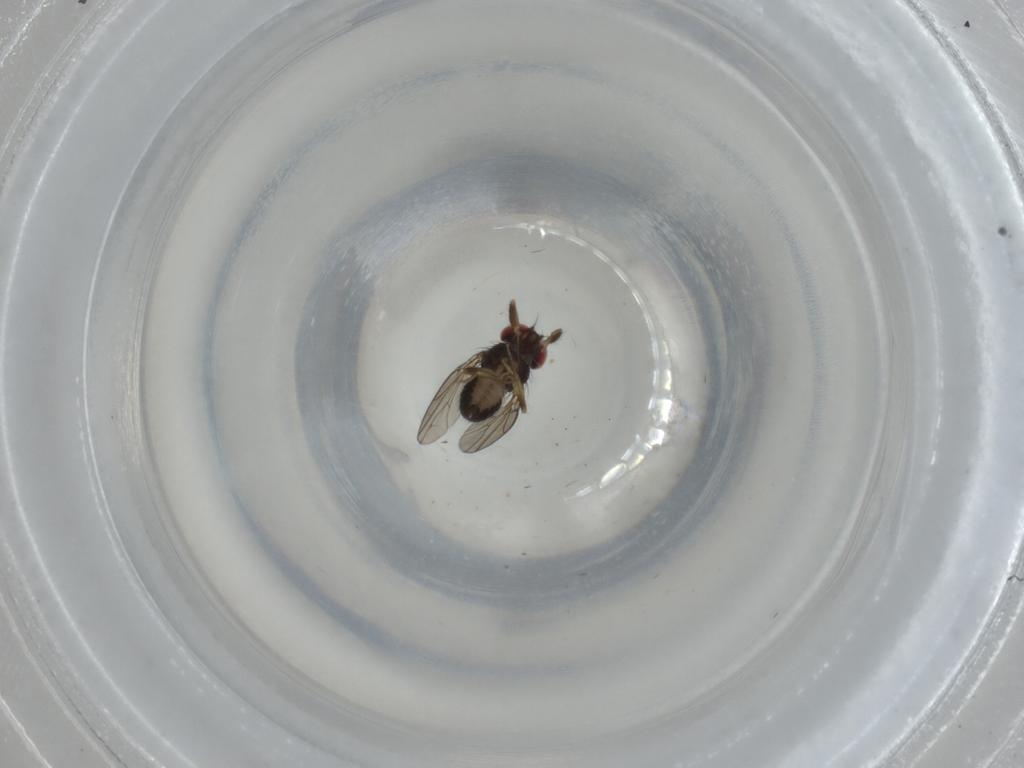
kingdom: Animalia
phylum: Arthropoda
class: Insecta
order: Diptera
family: Drosophilidae
